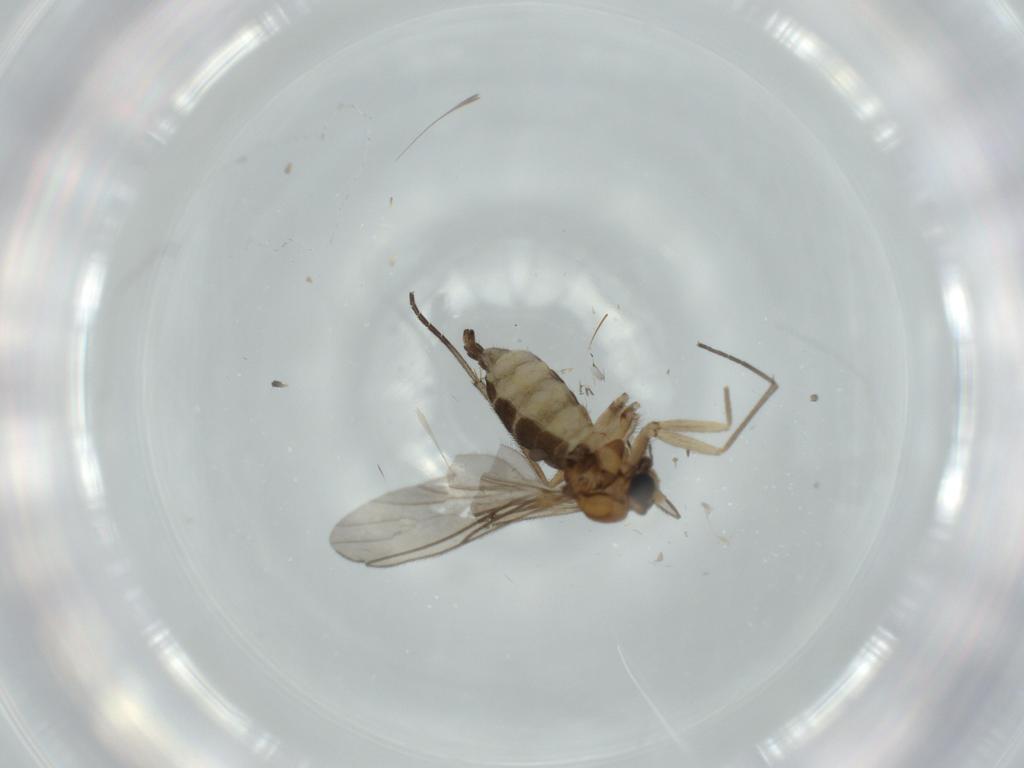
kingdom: Animalia
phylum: Arthropoda
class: Insecta
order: Diptera
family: Sciaridae
